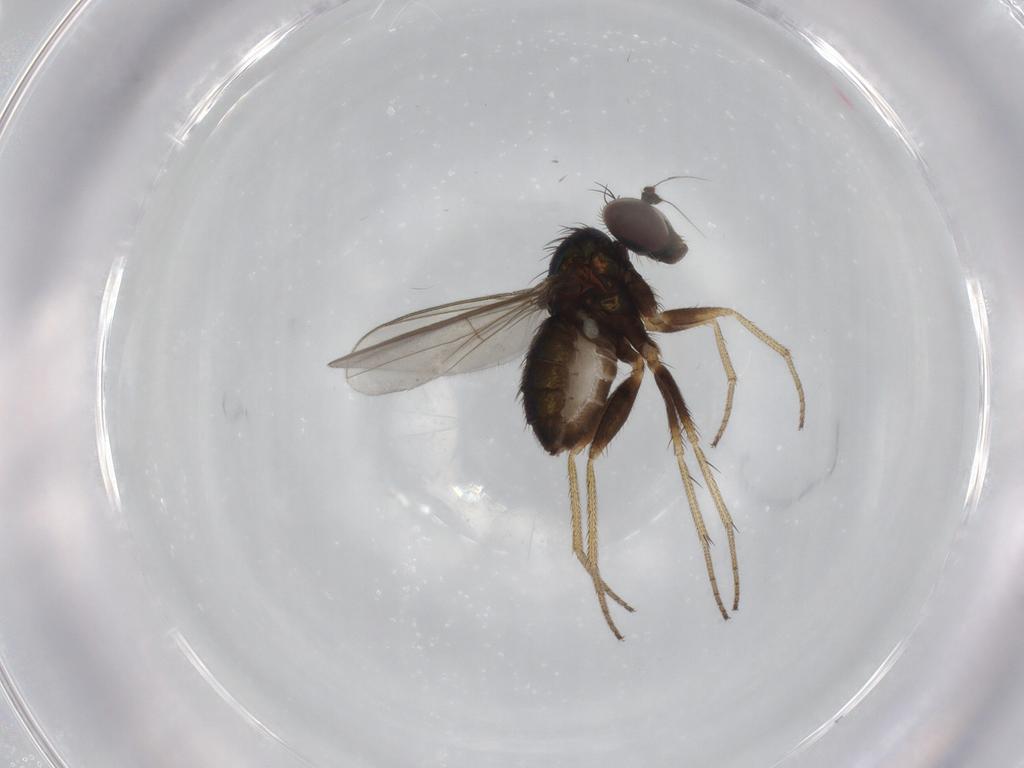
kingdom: Animalia
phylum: Arthropoda
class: Insecta
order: Diptera
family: Dolichopodidae
